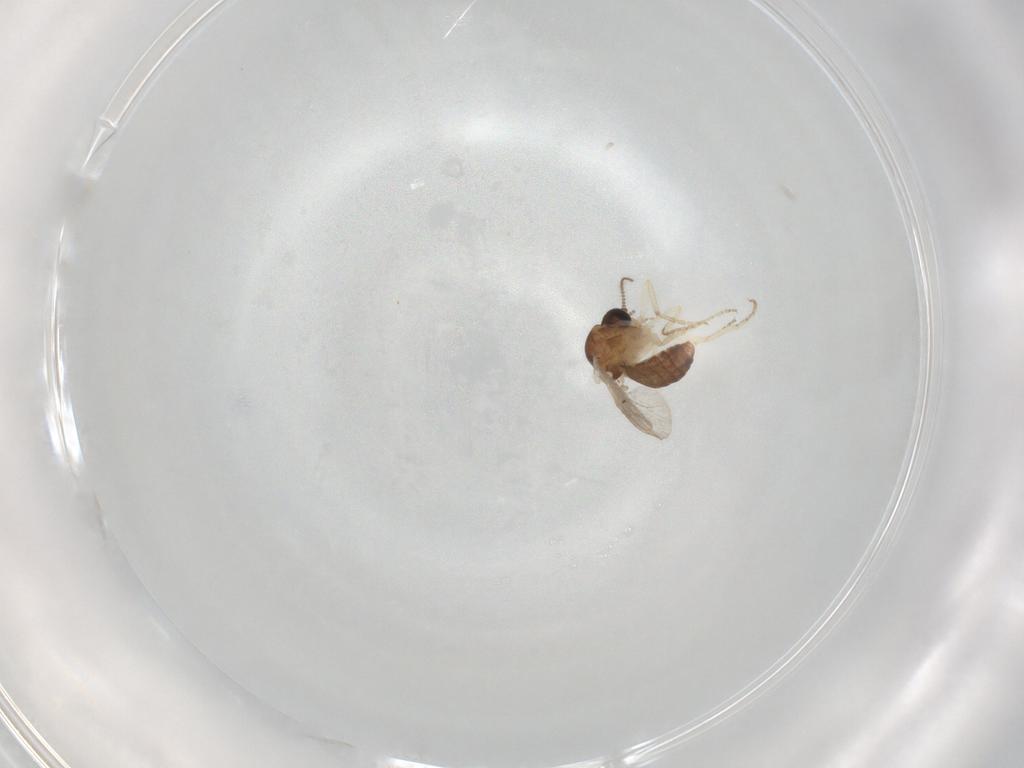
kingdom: Animalia
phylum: Arthropoda
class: Insecta
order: Diptera
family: Ceratopogonidae
